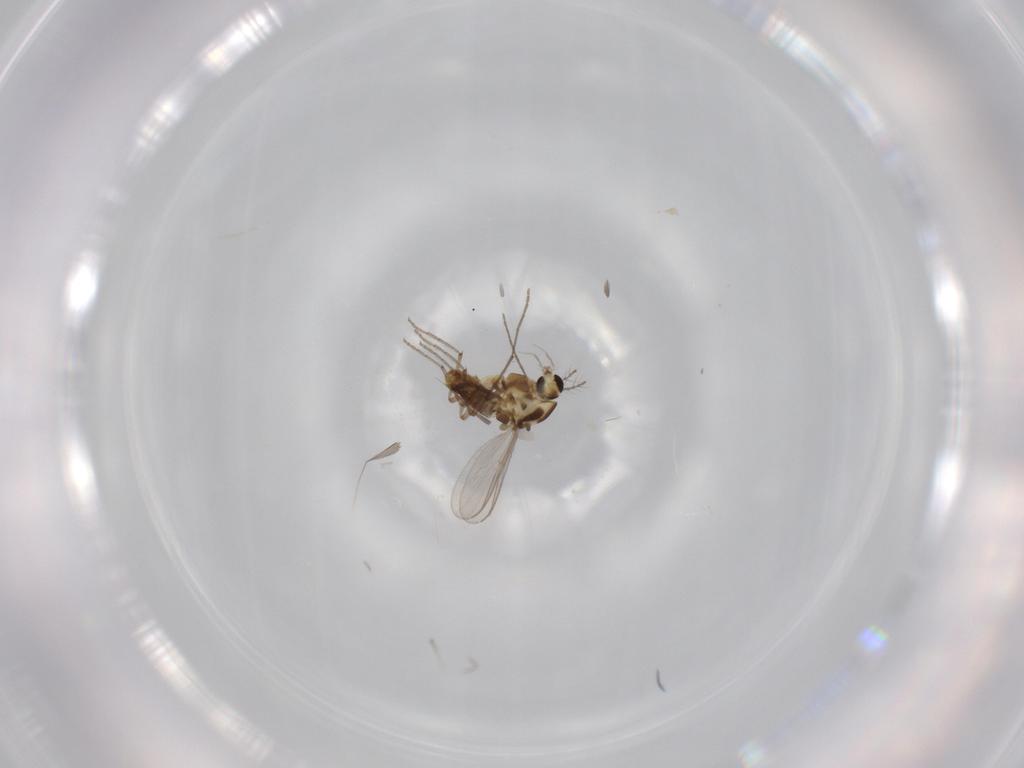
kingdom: Animalia
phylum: Arthropoda
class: Insecta
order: Diptera
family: Chironomidae
